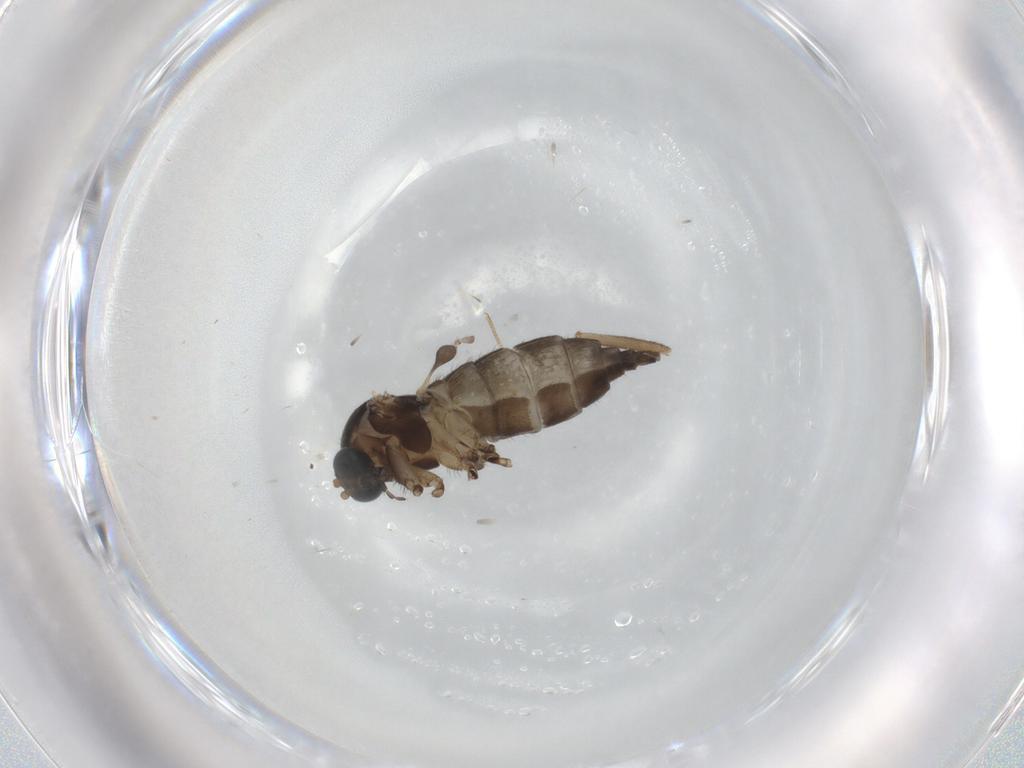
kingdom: Animalia
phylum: Arthropoda
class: Insecta
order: Diptera
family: Sciaridae
